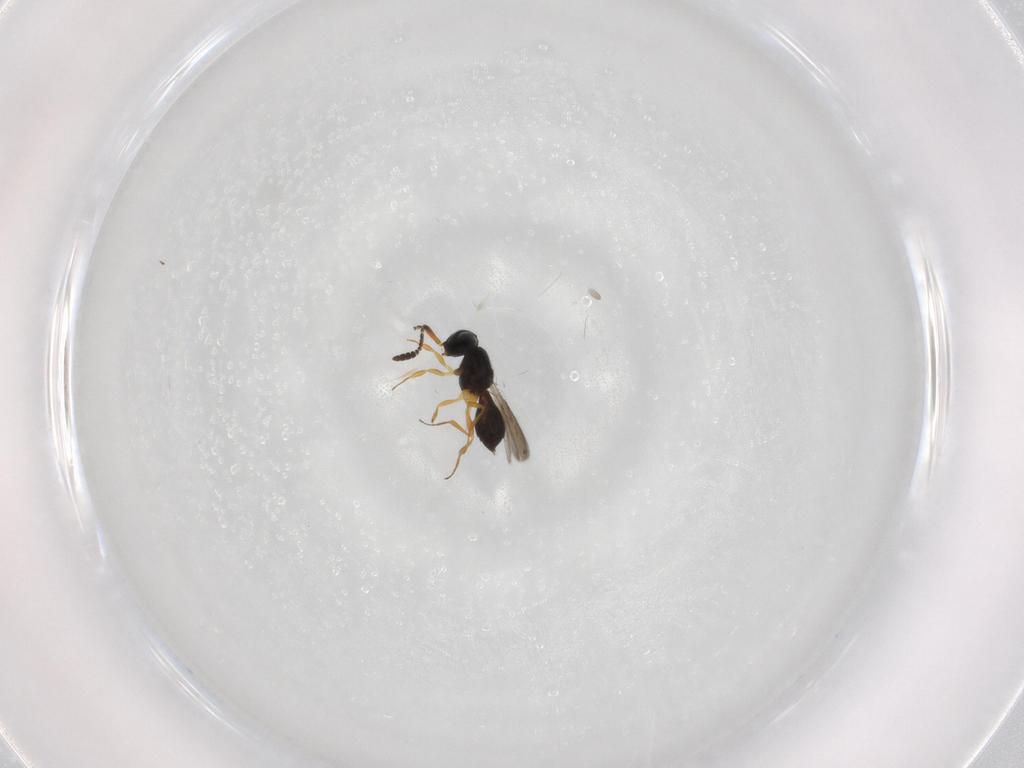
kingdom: Animalia
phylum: Arthropoda
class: Insecta
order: Hymenoptera
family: Scelionidae
